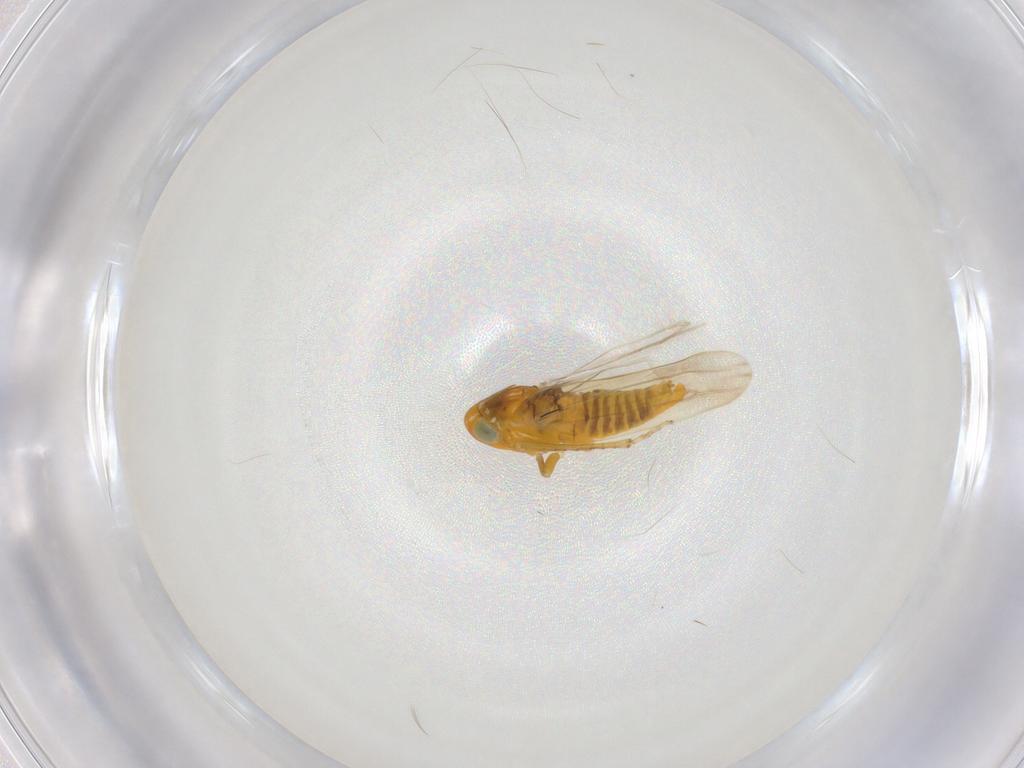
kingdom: Animalia
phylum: Arthropoda
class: Insecta
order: Hemiptera
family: Cicadellidae
